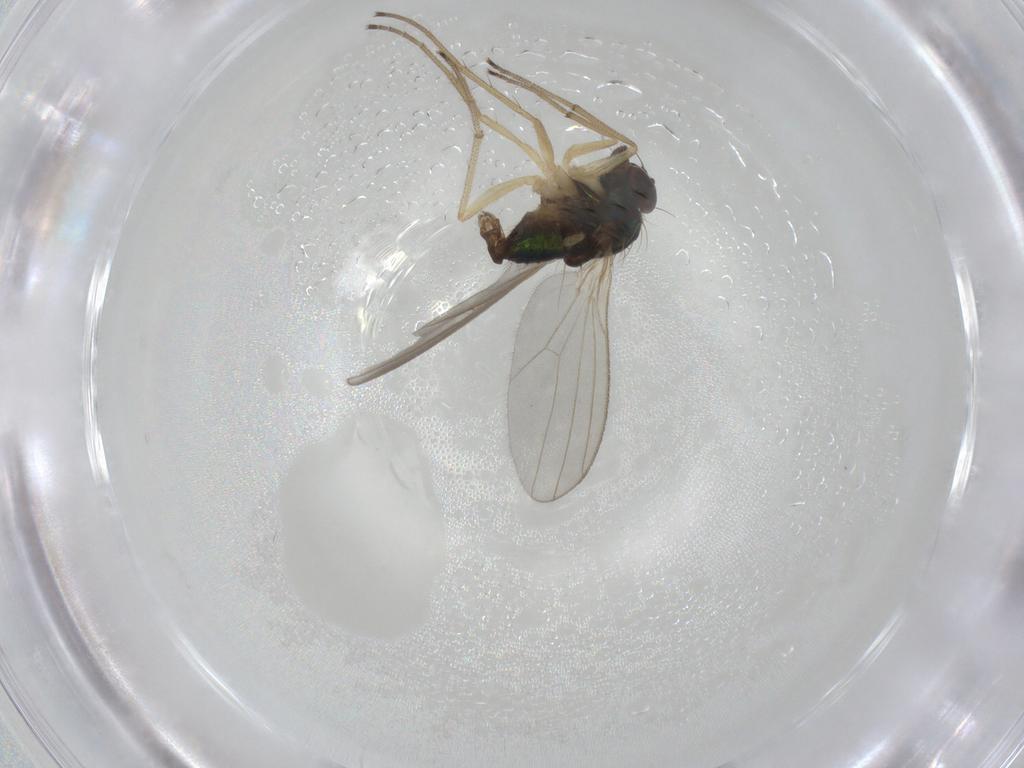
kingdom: Animalia
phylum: Arthropoda
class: Insecta
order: Diptera
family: Dolichopodidae
